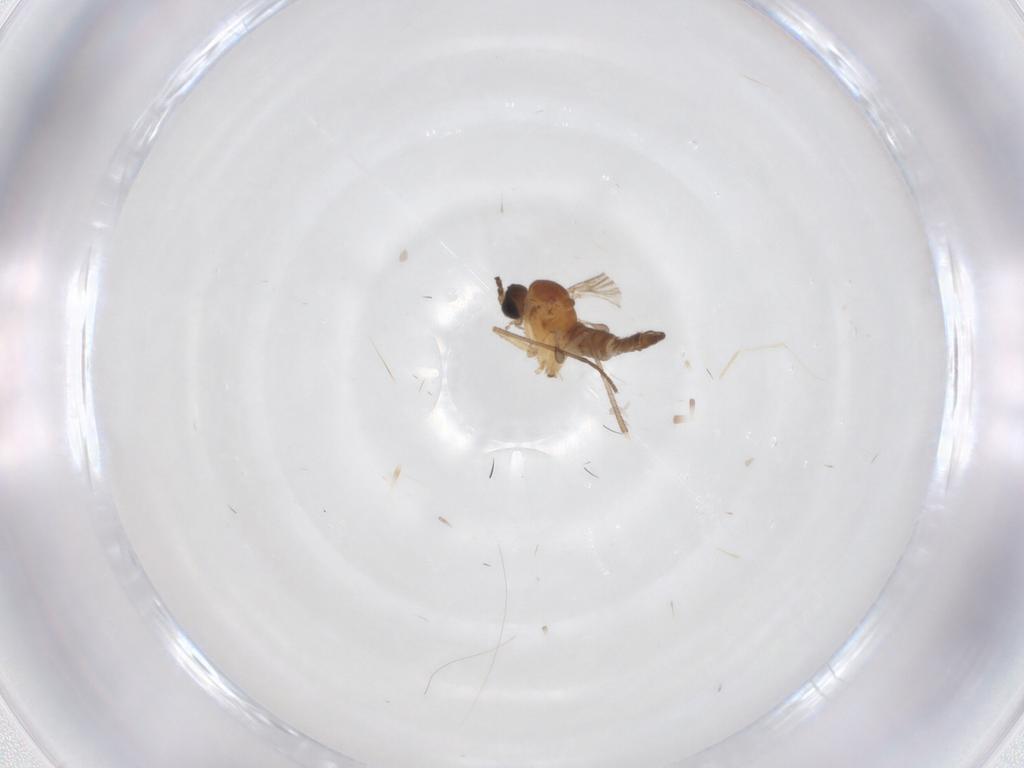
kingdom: Animalia
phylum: Arthropoda
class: Insecta
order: Diptera
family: Sciaridae
